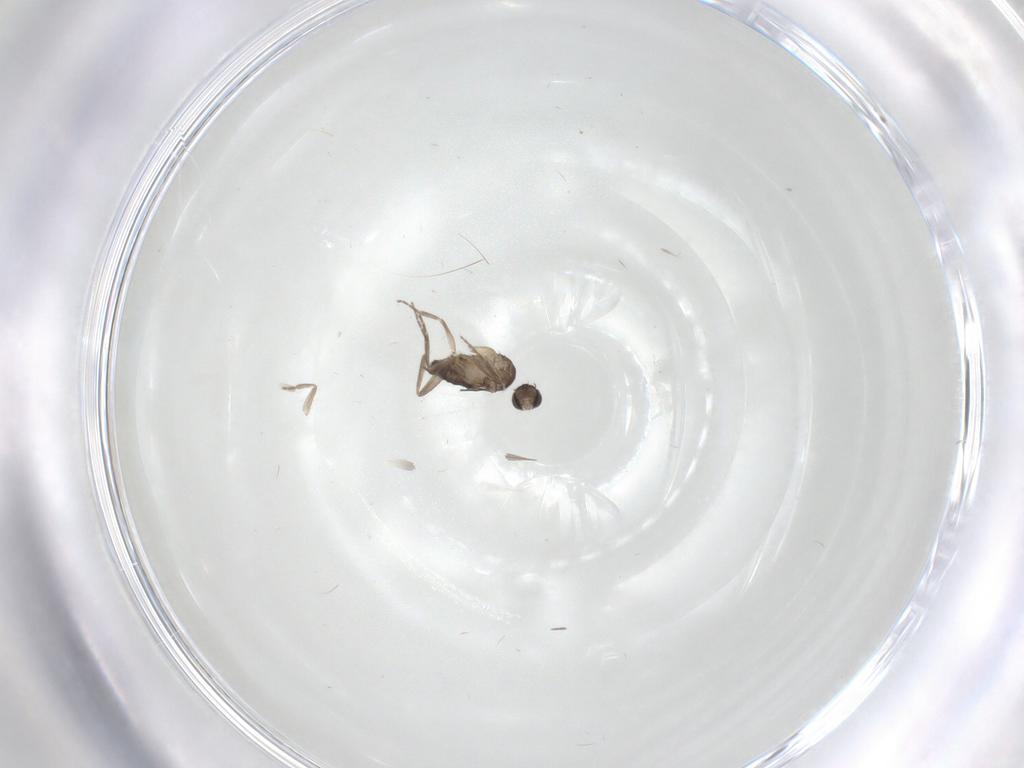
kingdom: Animalia
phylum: Arthropoda
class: Insecta
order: Diptera
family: Phoridae
